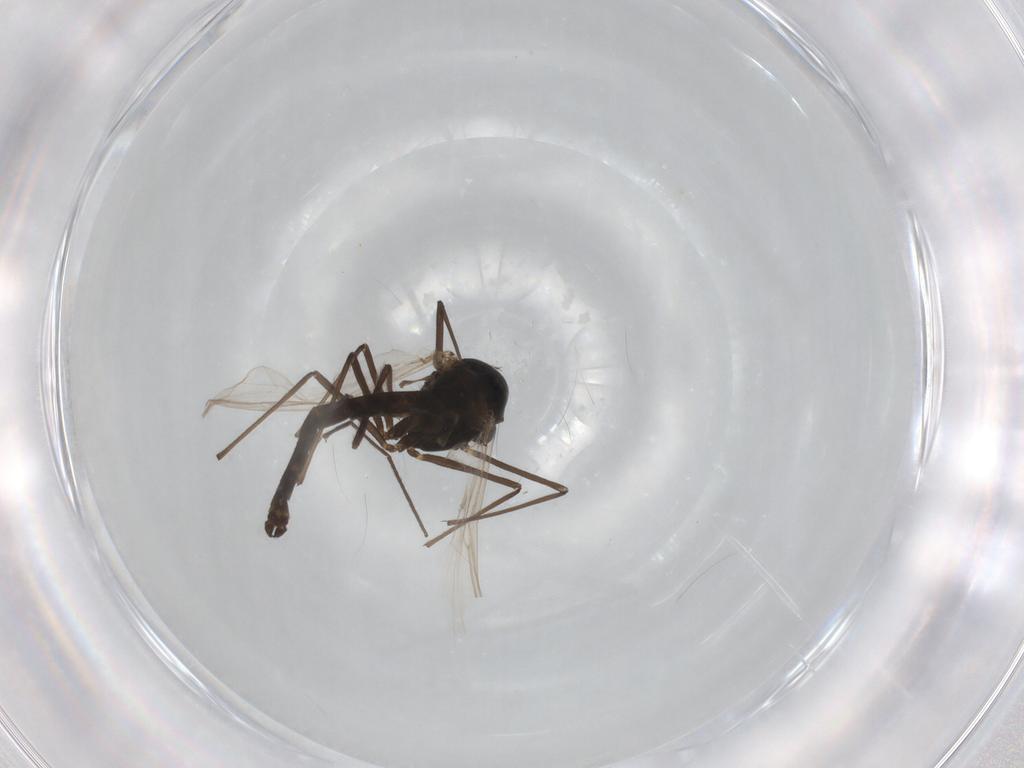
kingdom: Animalia
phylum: Arthropoda
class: Insecta
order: Diptera
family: Chironomidae
